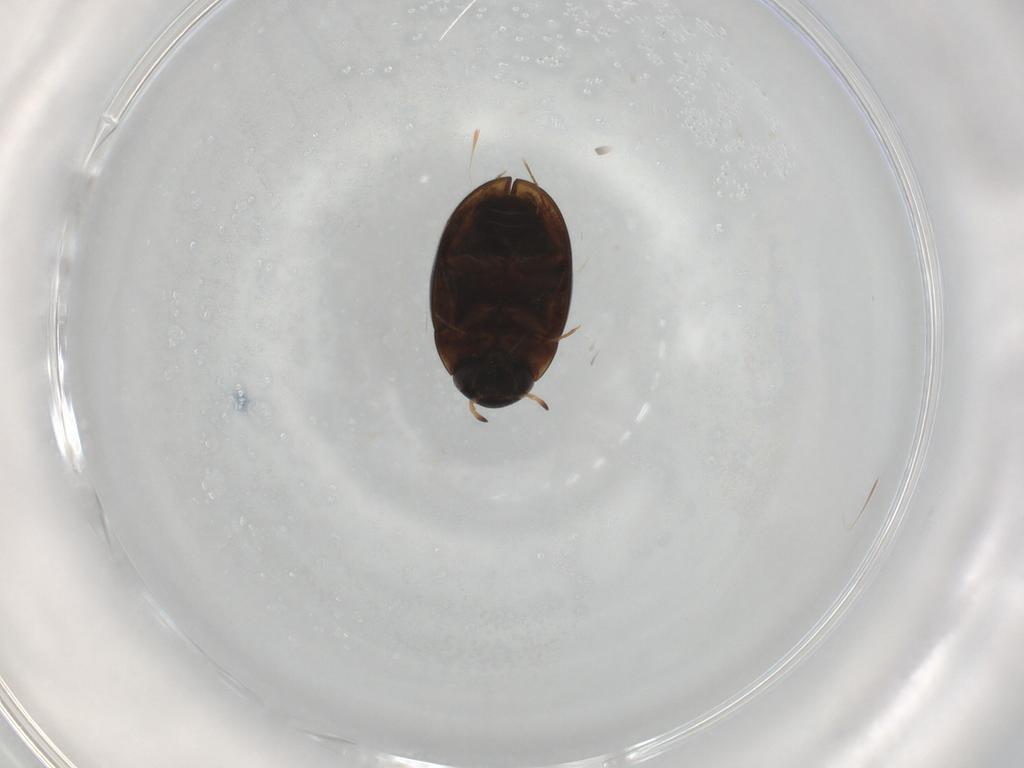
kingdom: Animalia
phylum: Arthropoda
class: Insecta
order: Coleoptera
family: Hydrophilidae
